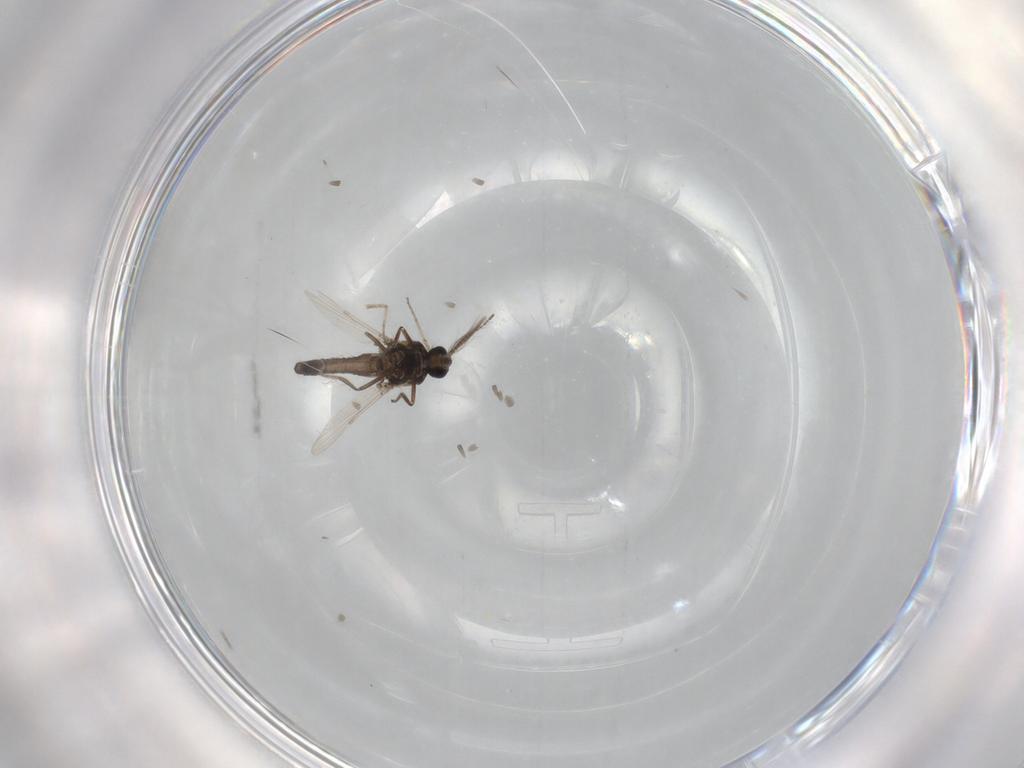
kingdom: Animalia
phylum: Arthropoda
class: Insecta
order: Diptera
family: Ceratopogonidae
